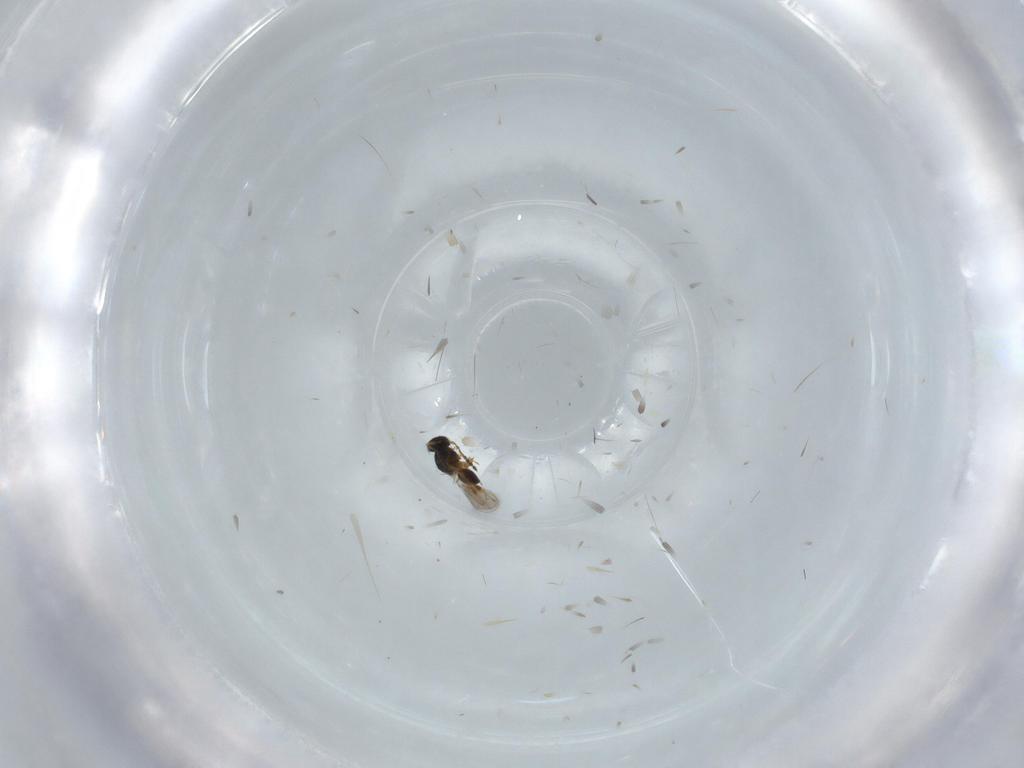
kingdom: Animalia
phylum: Arthropoda
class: Insecta
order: Hymenoptera
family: Platygastridae
